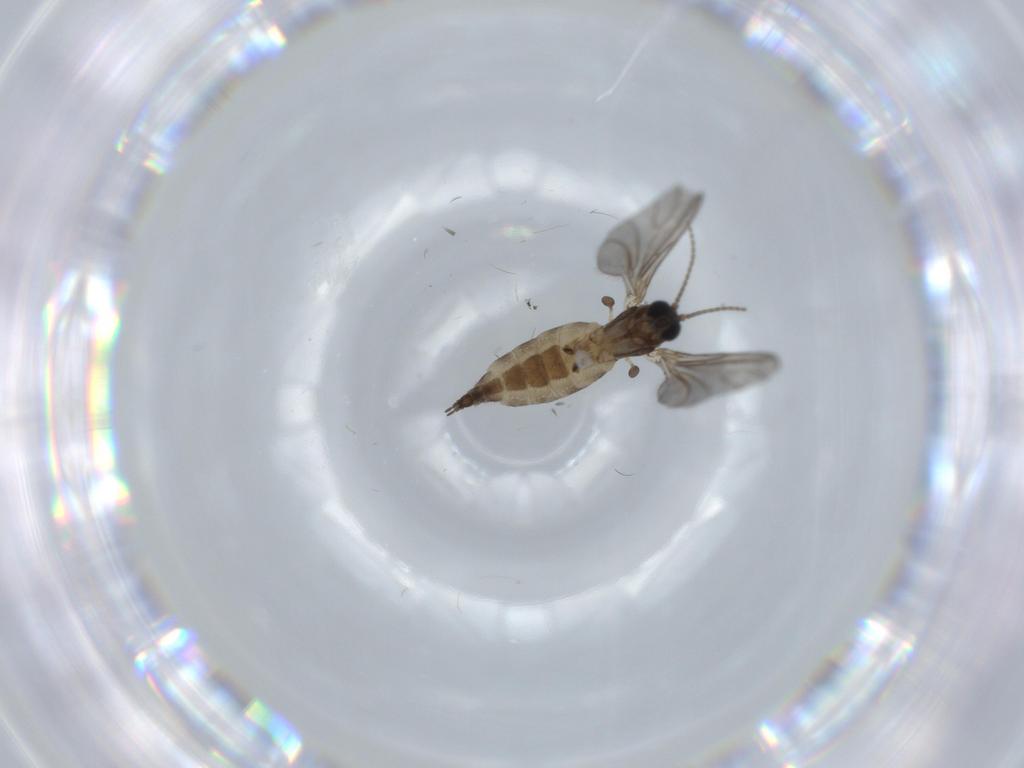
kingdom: Animalia
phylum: Arthropoda
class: Insecta
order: Diptera
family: Sciaridae
